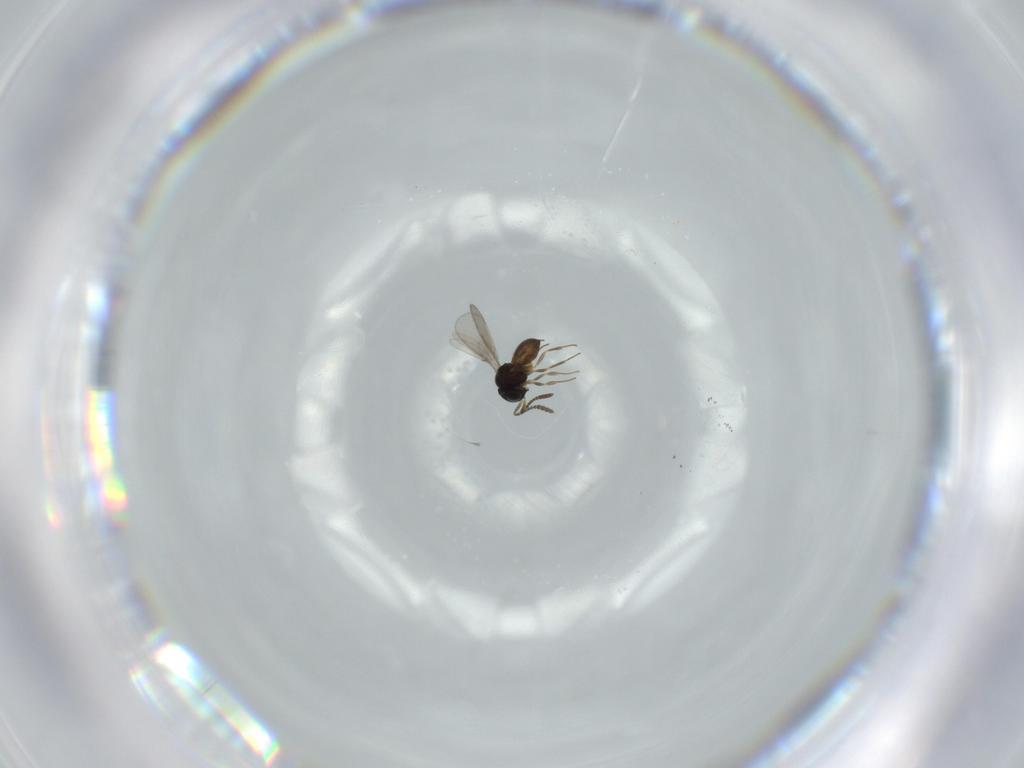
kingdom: Animalia
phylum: Arthropoda
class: Insecta
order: Hymenoptera
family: Scelionidae
